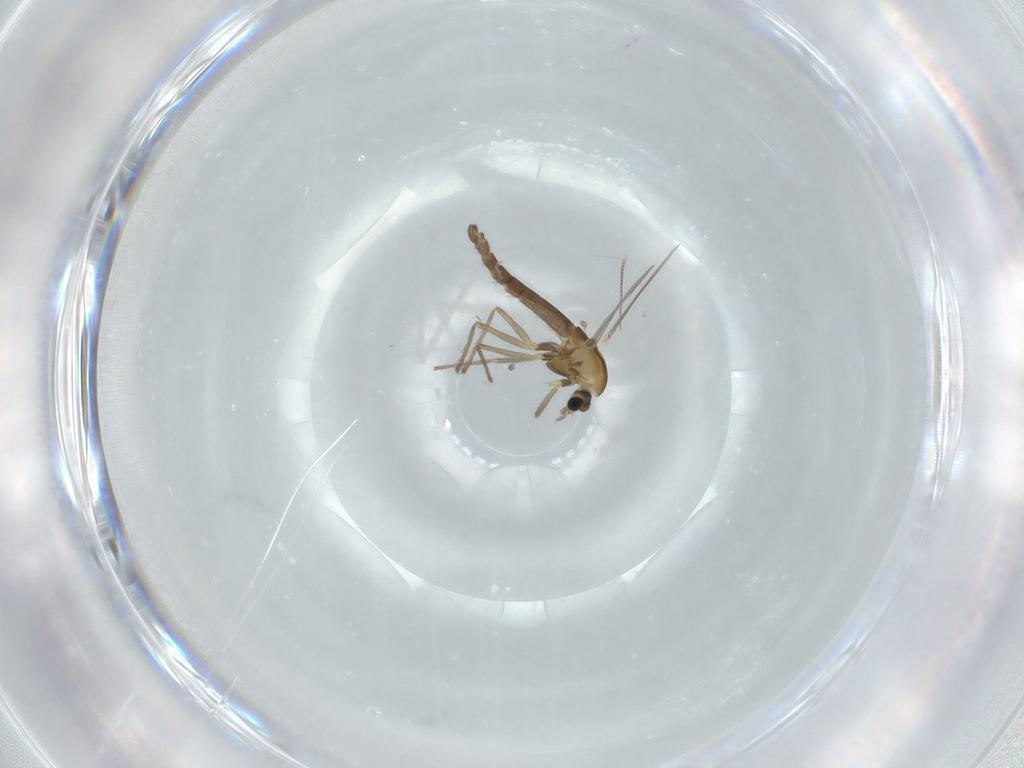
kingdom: Animalia
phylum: Arthropoda
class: Insecta
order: Diptera
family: Chironomidae
